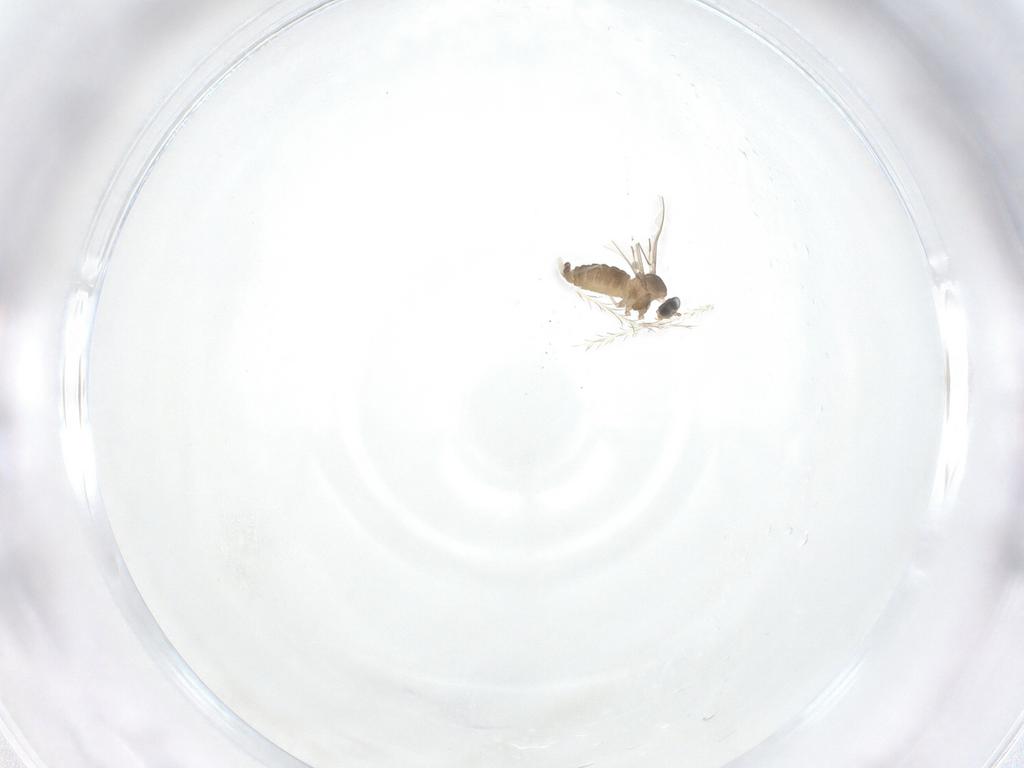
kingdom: Animalia
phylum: Arthropoda
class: Insecta
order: Diptera
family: Cecidomyiidae
